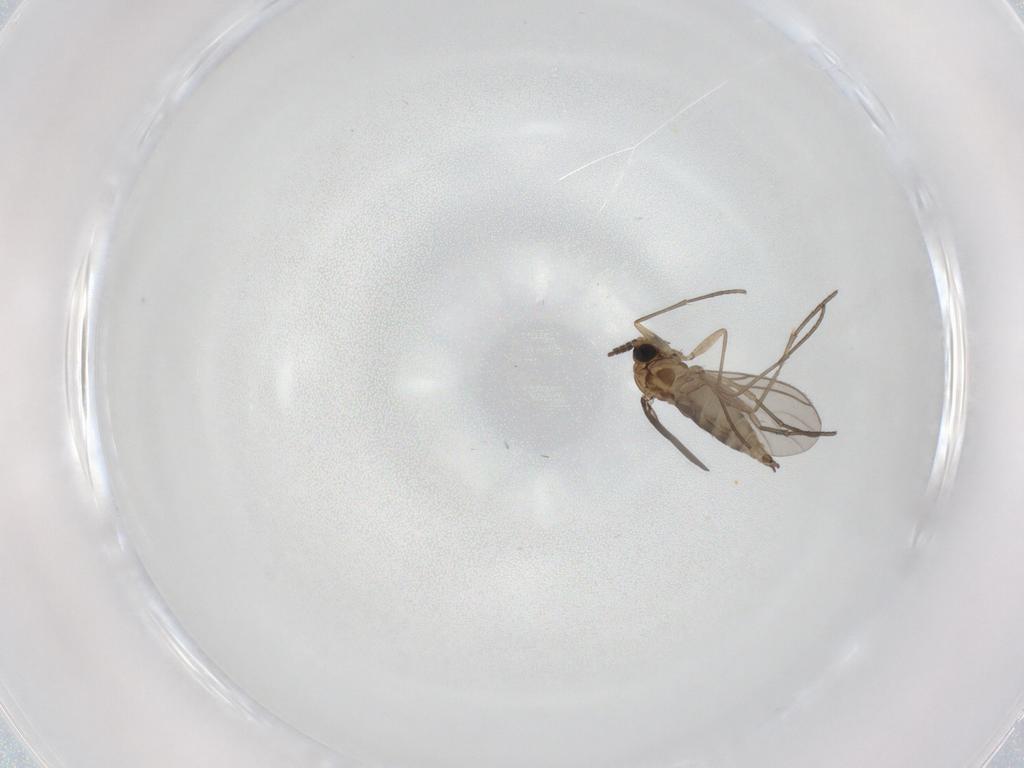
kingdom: Animalia
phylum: Arthropoda
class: Insecta
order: Diptera
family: Sciaridae
